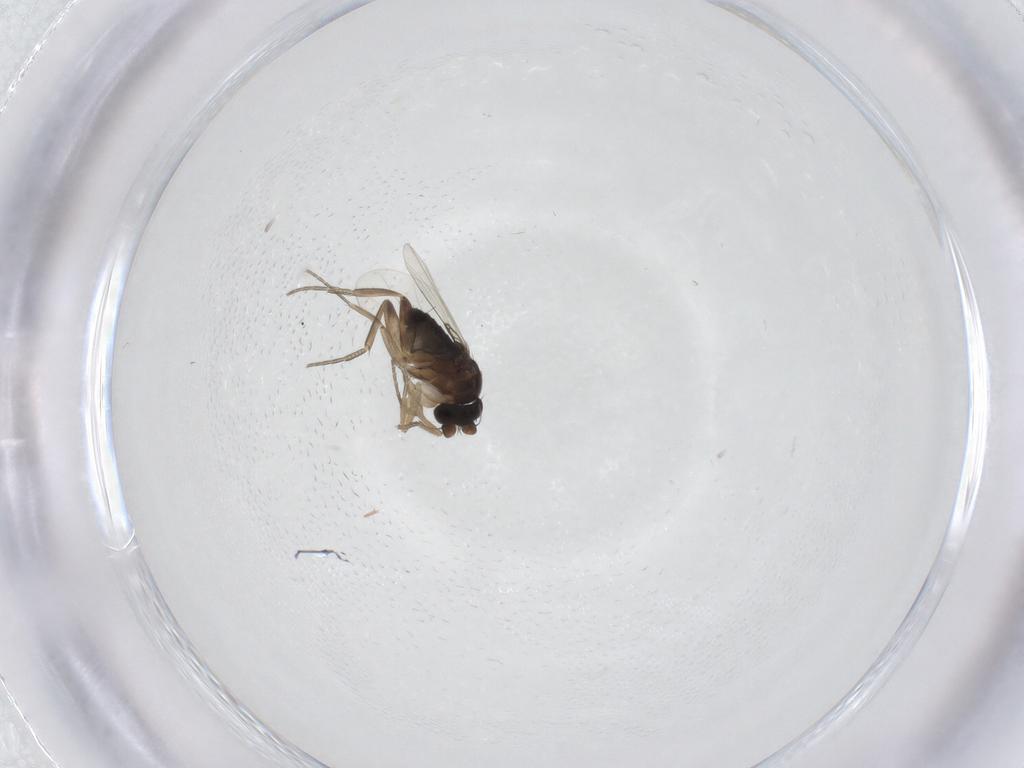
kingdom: Animalia
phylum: Arthropoda
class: Insecta
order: Diptera
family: Phoridae
